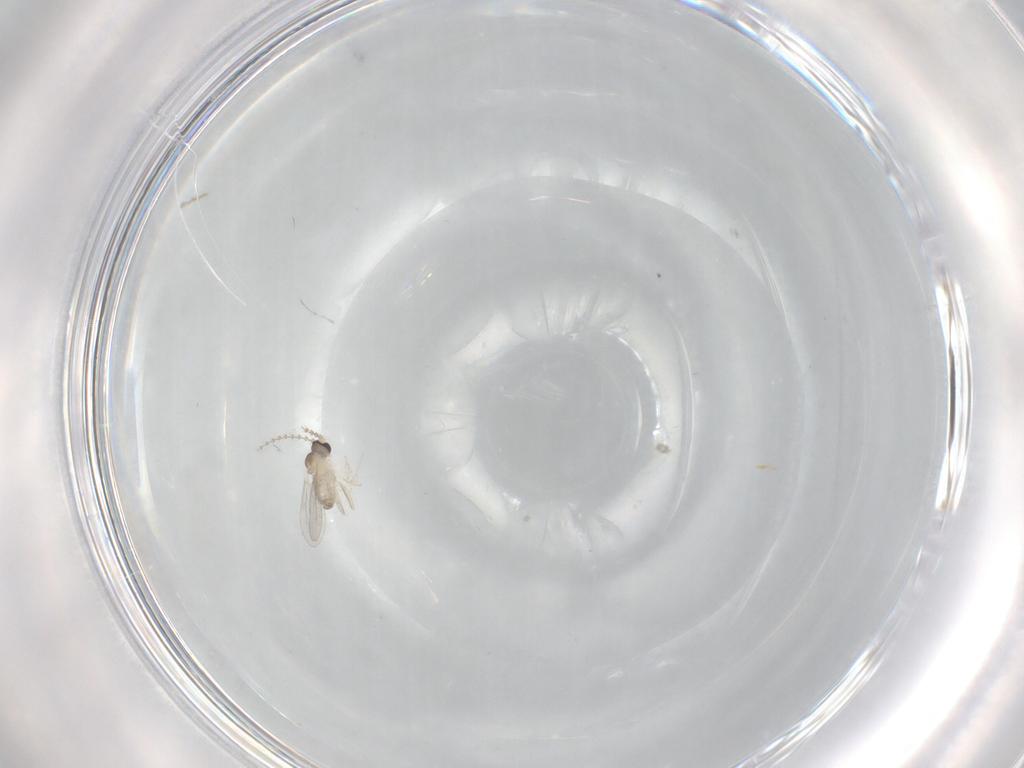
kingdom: Animalia
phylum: Arthropoda
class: Insecta
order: Diptera
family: Cecidomyiidae
